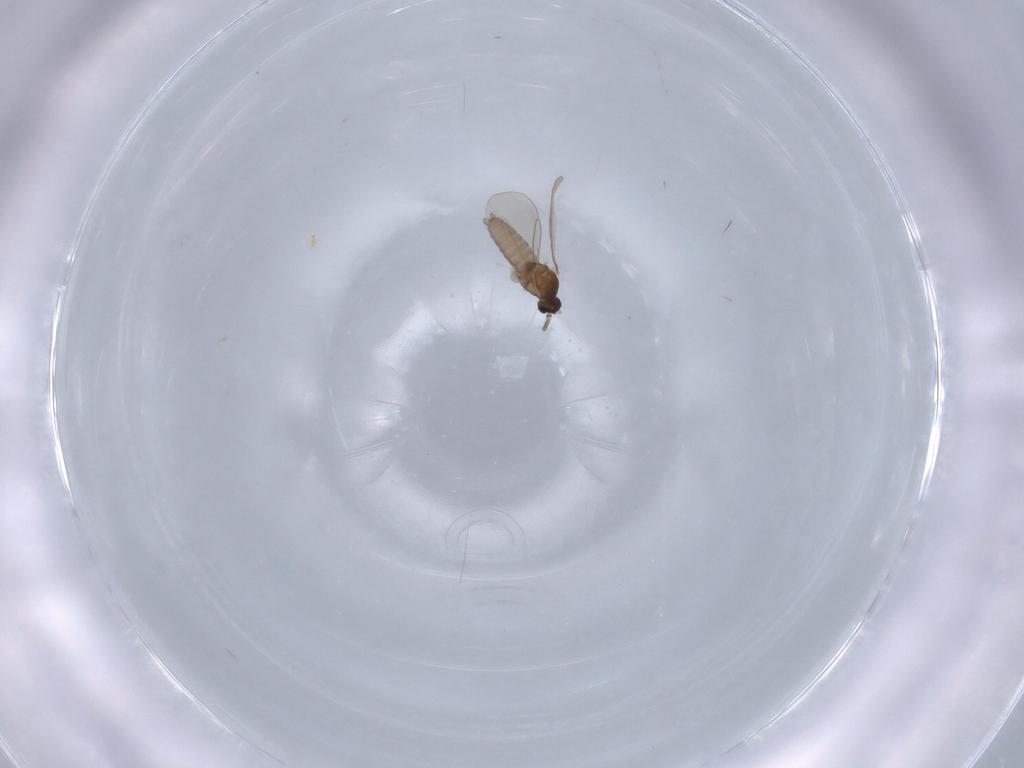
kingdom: Animalia
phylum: Arthropoda
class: Insecta
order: Diptera
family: Cecidomyiidae
